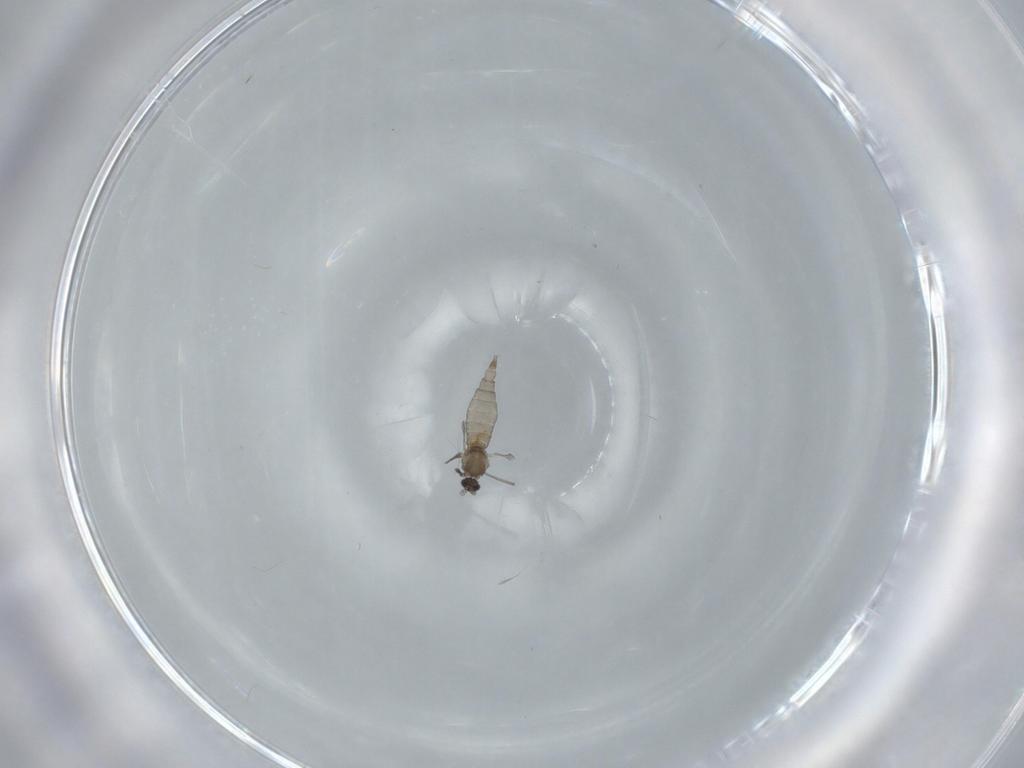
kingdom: Animalia
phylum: Arthropoda
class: Insecta
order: Diptera
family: Cecidomyiidae
